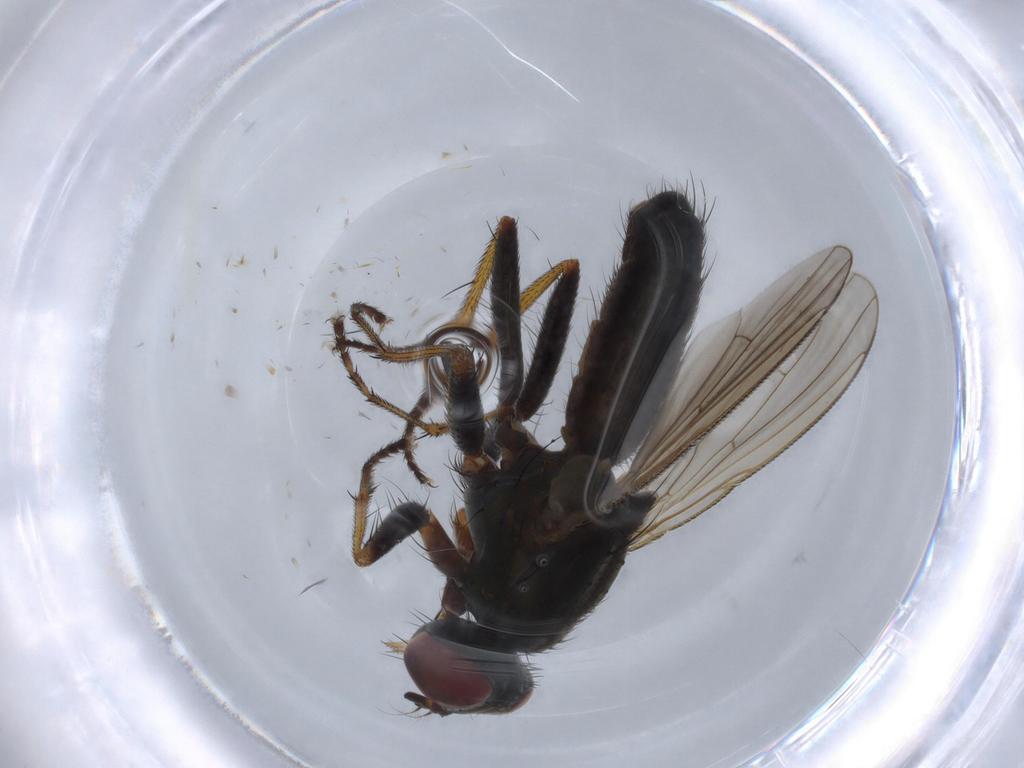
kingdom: Animalia
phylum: Arthropoda
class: Insecta
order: Diptera
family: Muscidae
